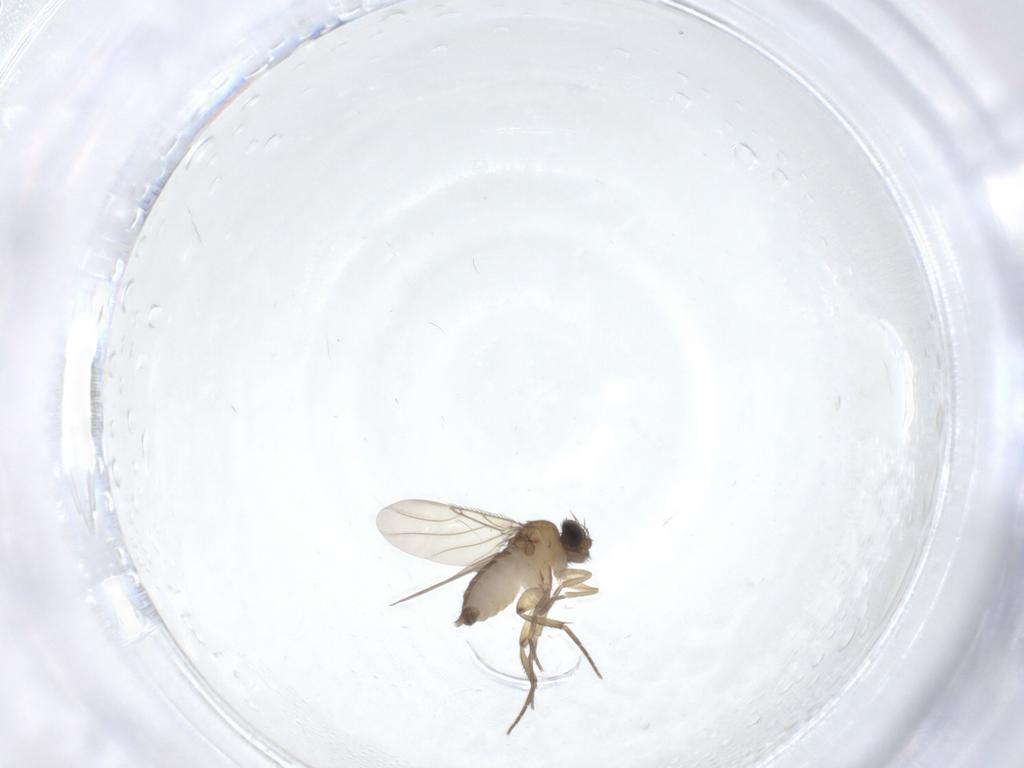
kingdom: Animalia
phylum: Arthropoda
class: Insecta
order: Diptera
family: Phoridae
